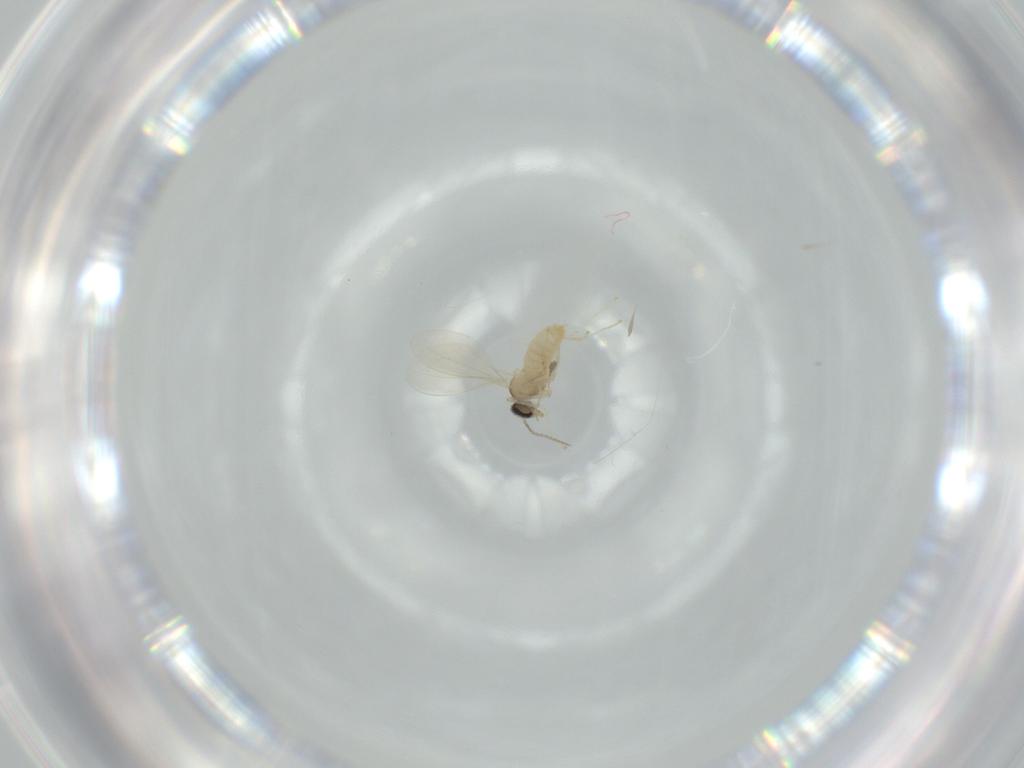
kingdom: Animalia
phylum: Arthropoda
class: Insecta
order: Diptera
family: Cecidomyiidae
